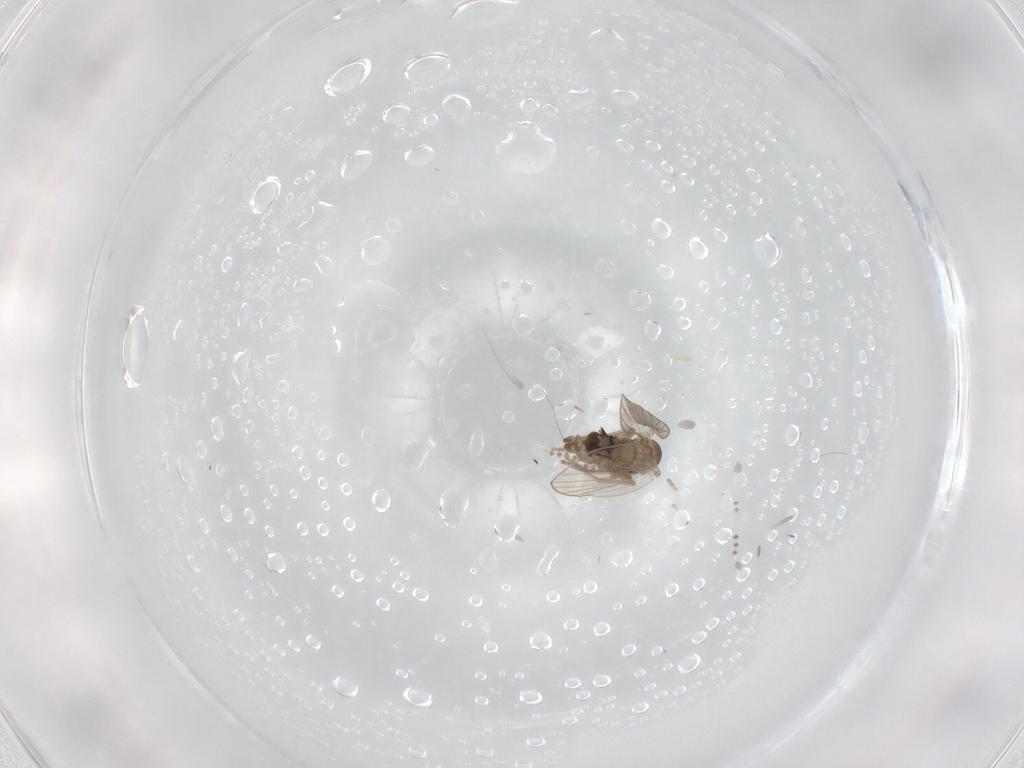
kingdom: Animalia
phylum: Arthropoda
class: Insecta
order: Diptera
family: Psychodidae
